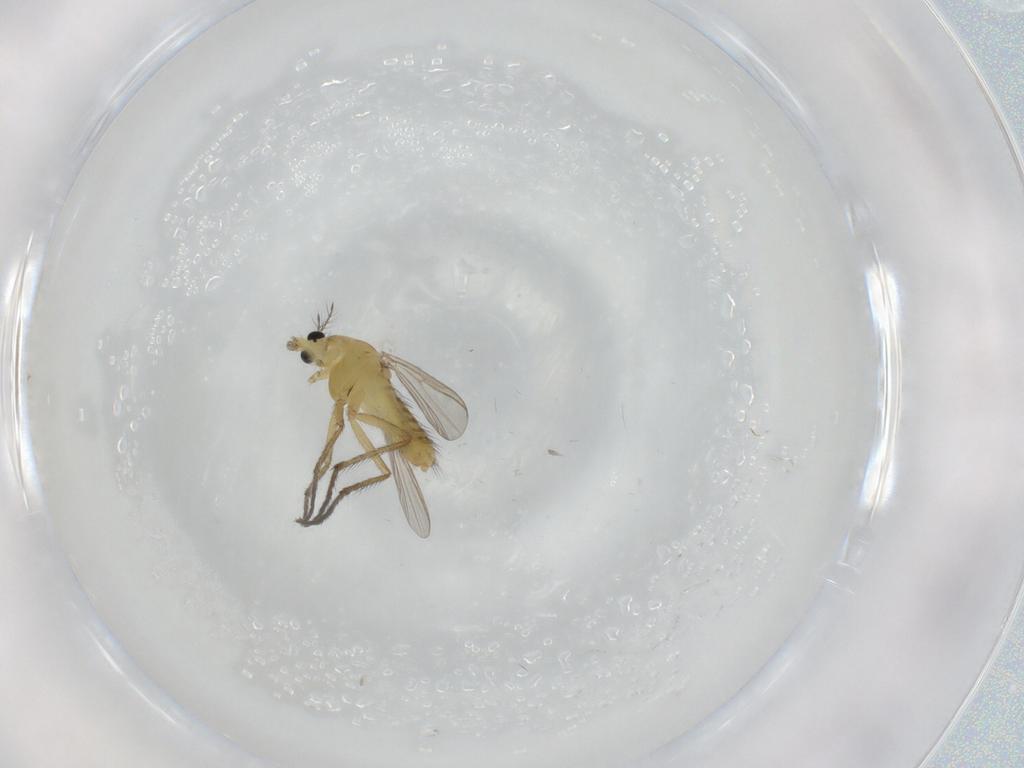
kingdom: Animalia
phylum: Arthropoda
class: Insecta
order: Diptera
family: Chironomidae
